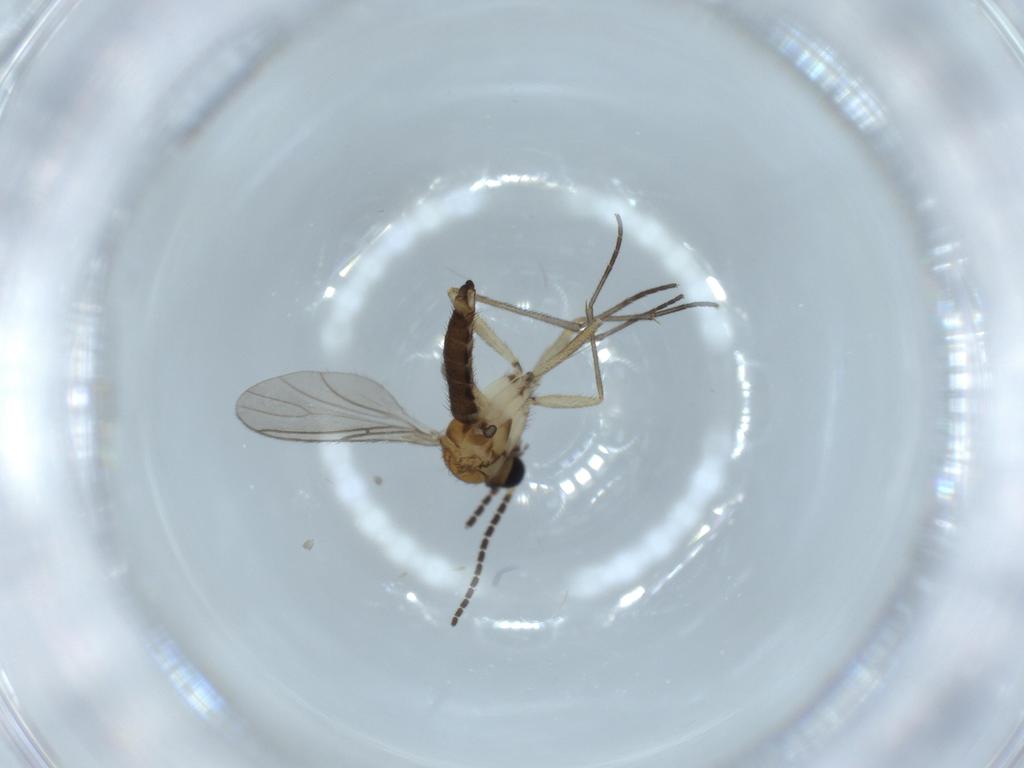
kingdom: Animalia
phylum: Arthropoda
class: Insecta
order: Diptera
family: Sciaridae
